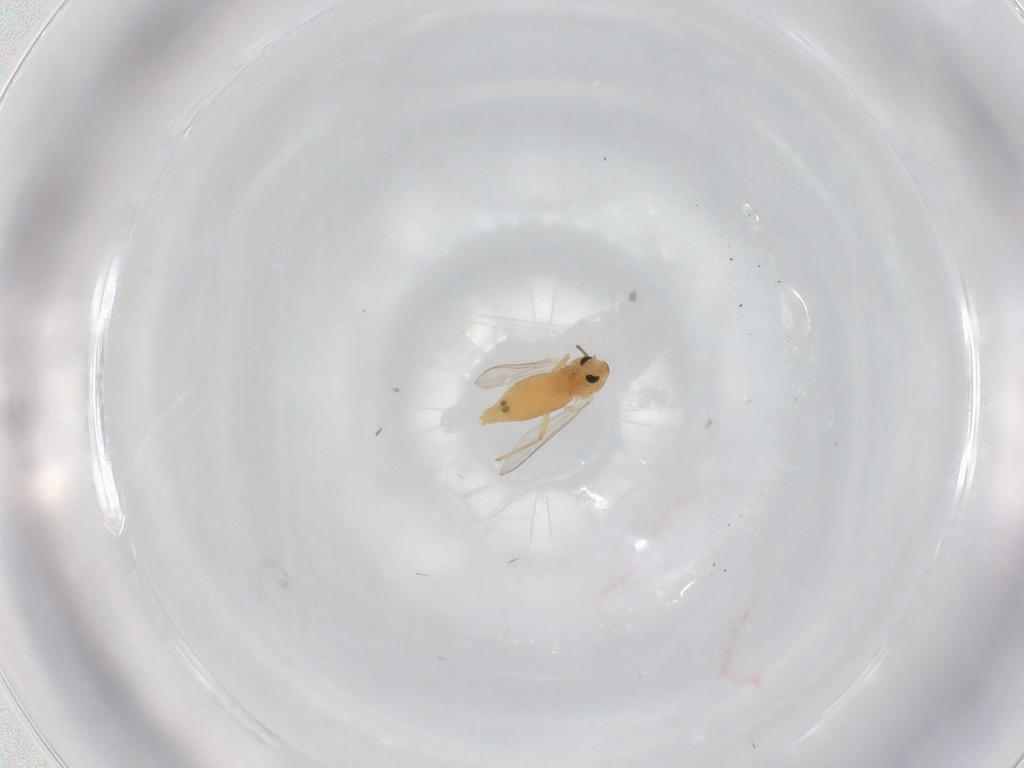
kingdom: Animalia
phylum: Arthropoda
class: Insecta
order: Diptera
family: Chironomidae
